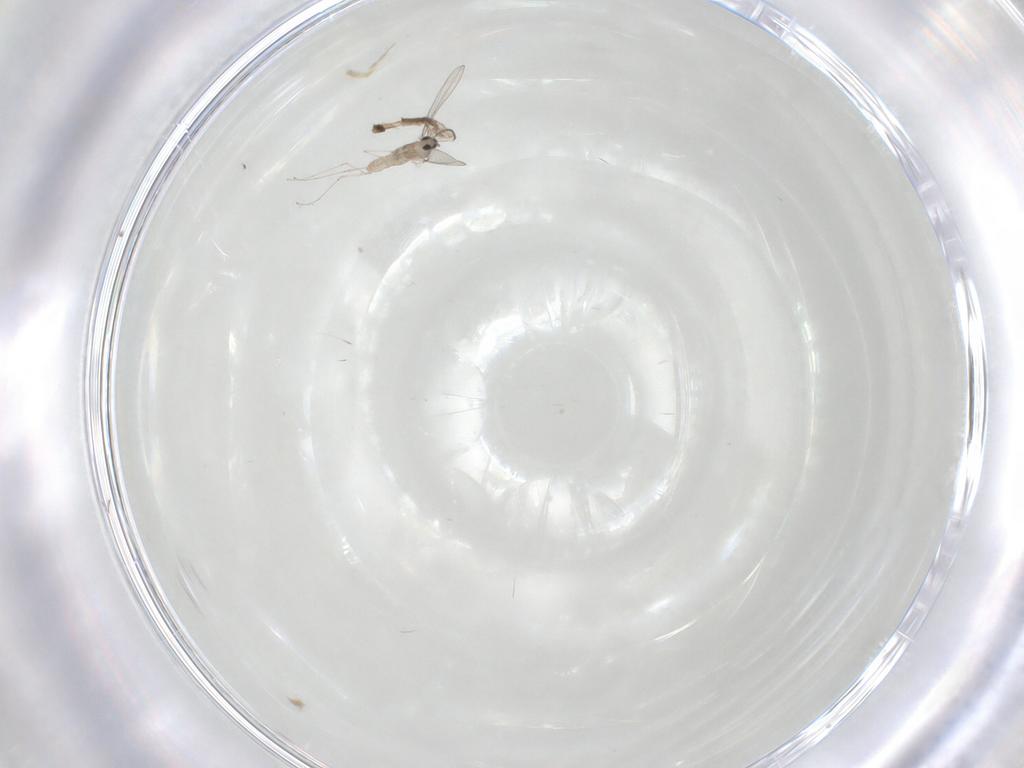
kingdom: Animalia
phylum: Arthropoda
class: Insecta
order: Diptera
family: Cecidomyiidae
